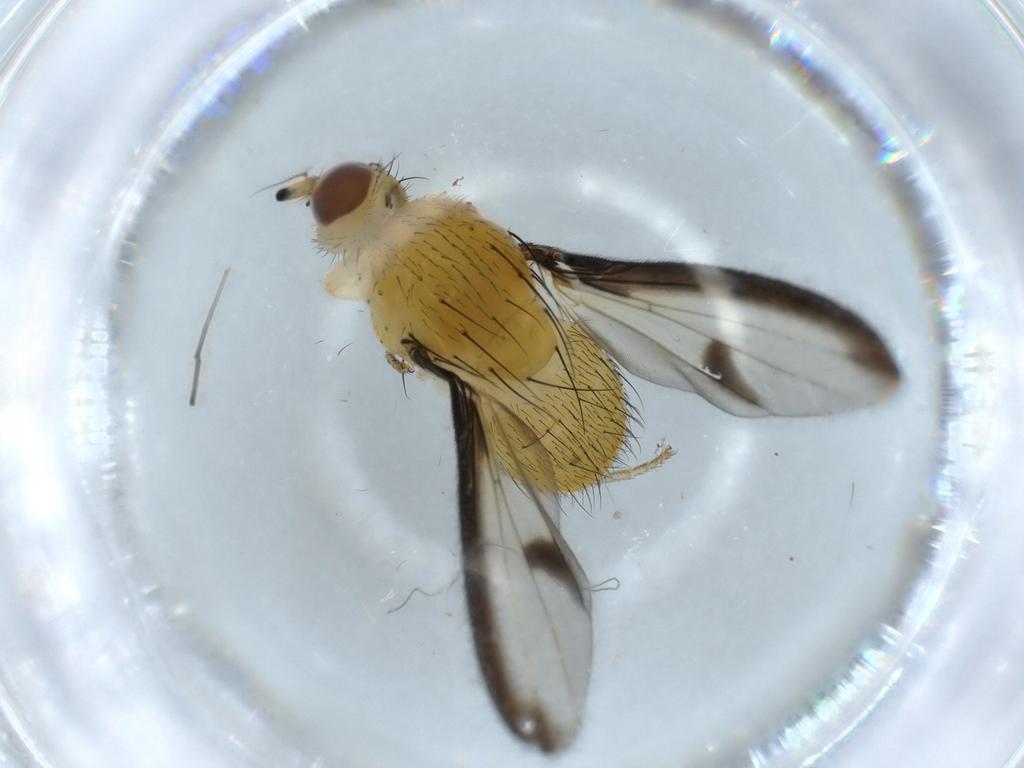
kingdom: Animalia
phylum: Arthropoda
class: Insecta
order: Diptera
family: Lauxaniidae
